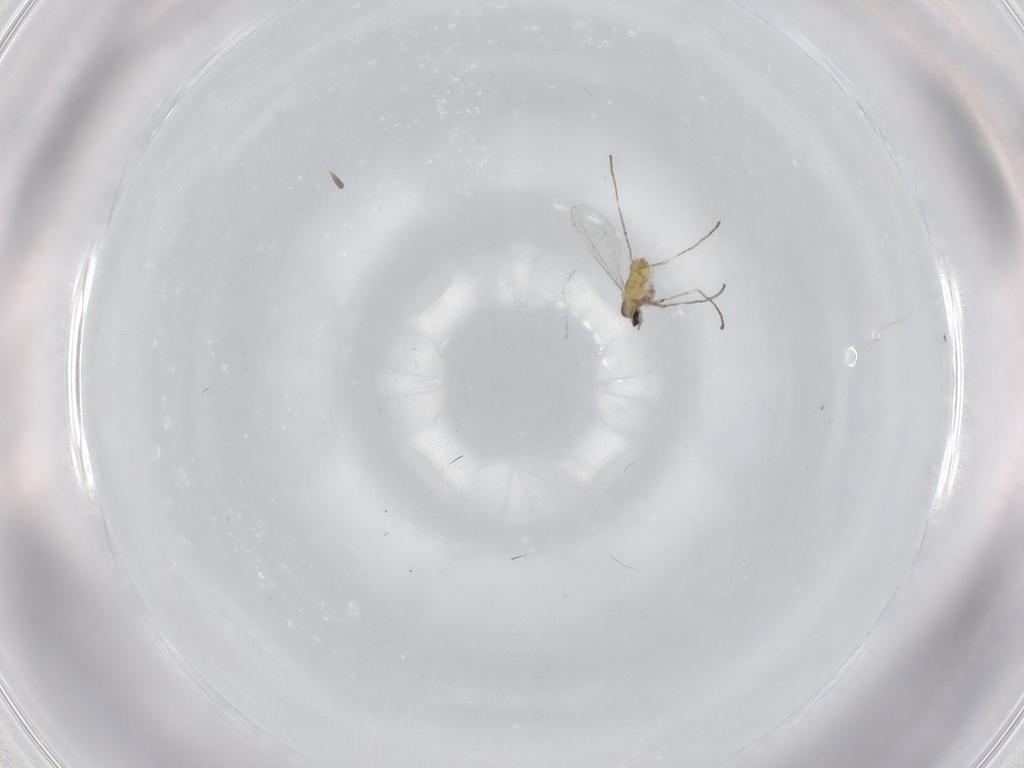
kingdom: Animalia
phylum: Arthropoda
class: Insecta
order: Diptera
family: Cecidomyiidae
